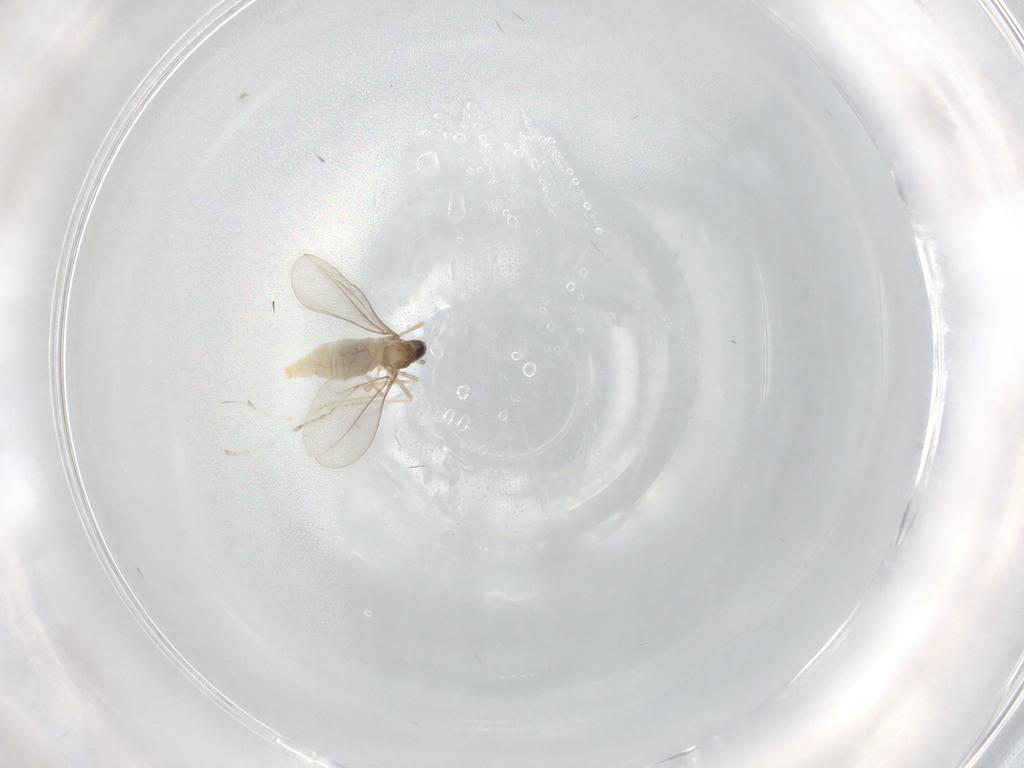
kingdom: Animalia
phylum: Arthropoda
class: Insecta
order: Diptera
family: Cecidomyiidae
